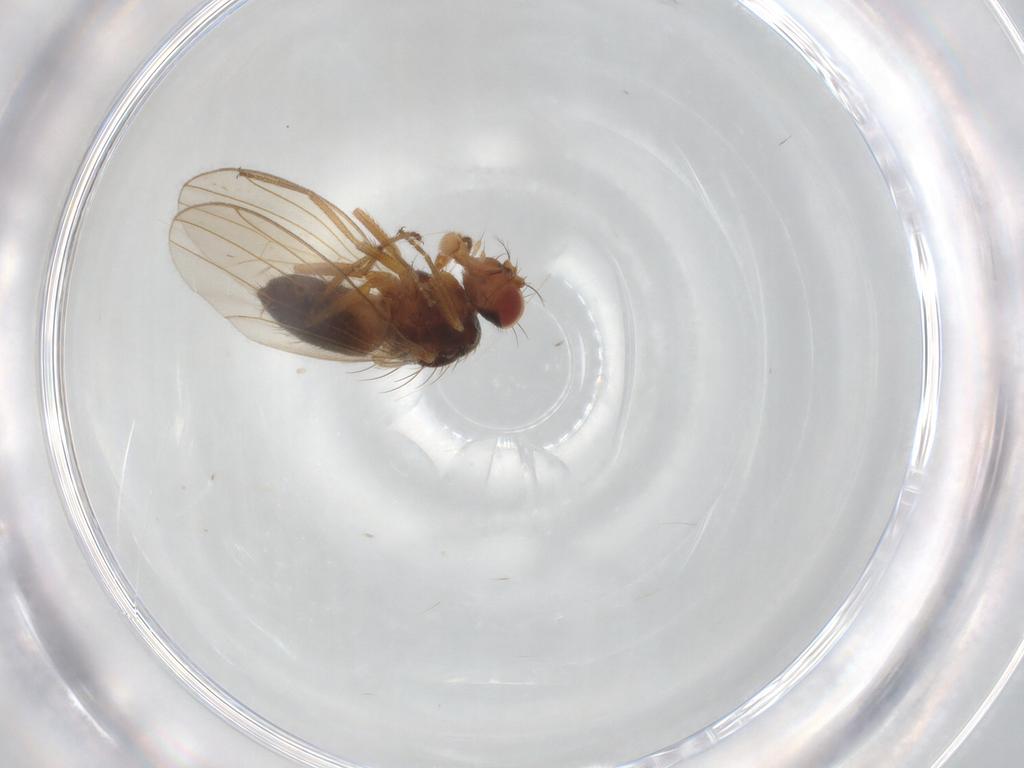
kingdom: Animalia
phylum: Arthropoda
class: Insecta
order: Diptera
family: Drosophilidae
